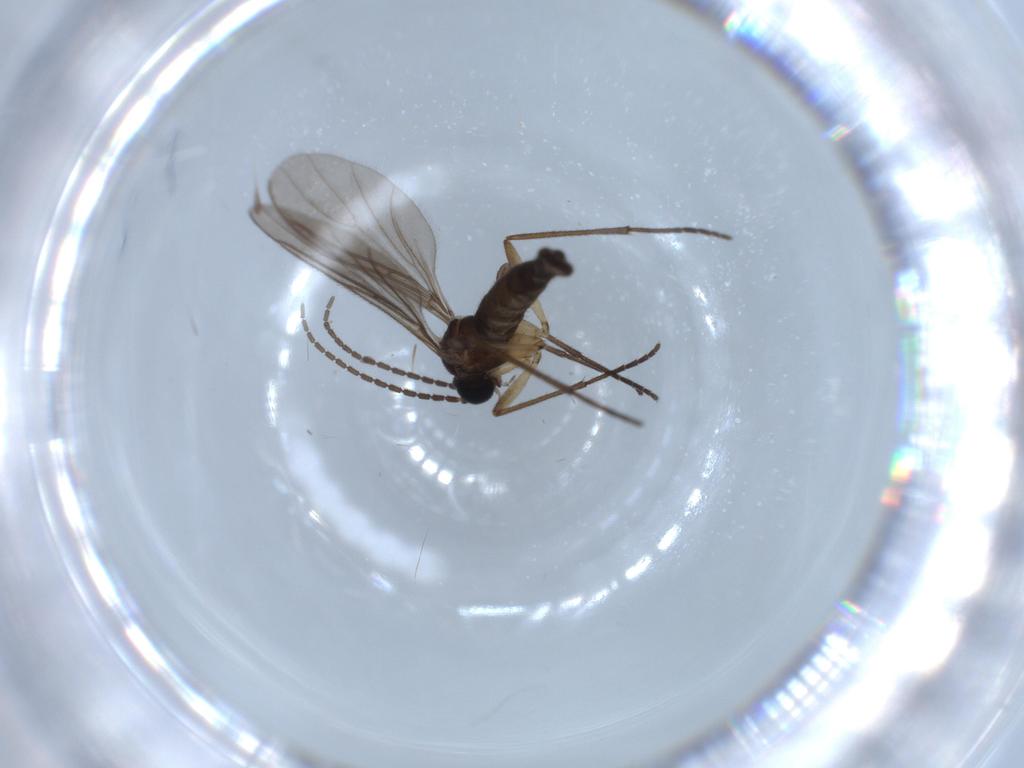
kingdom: Animalia
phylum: Arthropoda
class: Insecta
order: Diptera
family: Sciaridae
